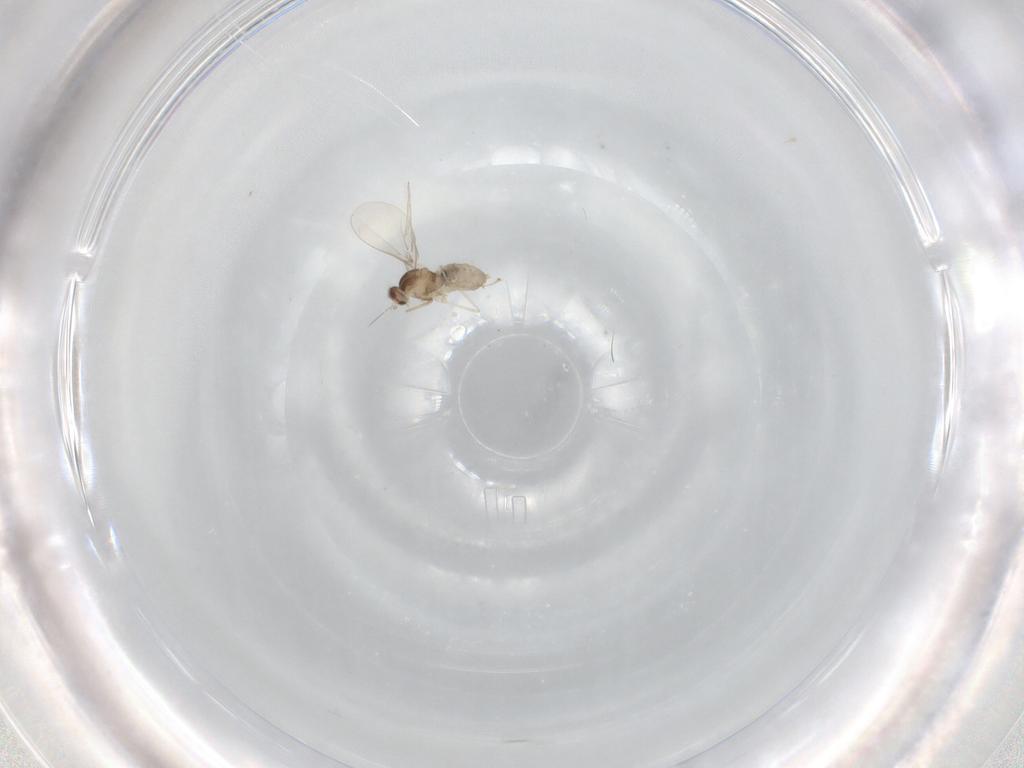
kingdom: Animalia
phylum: Arthropoda
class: Insecta
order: Diptera
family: Cecidomyiidae
